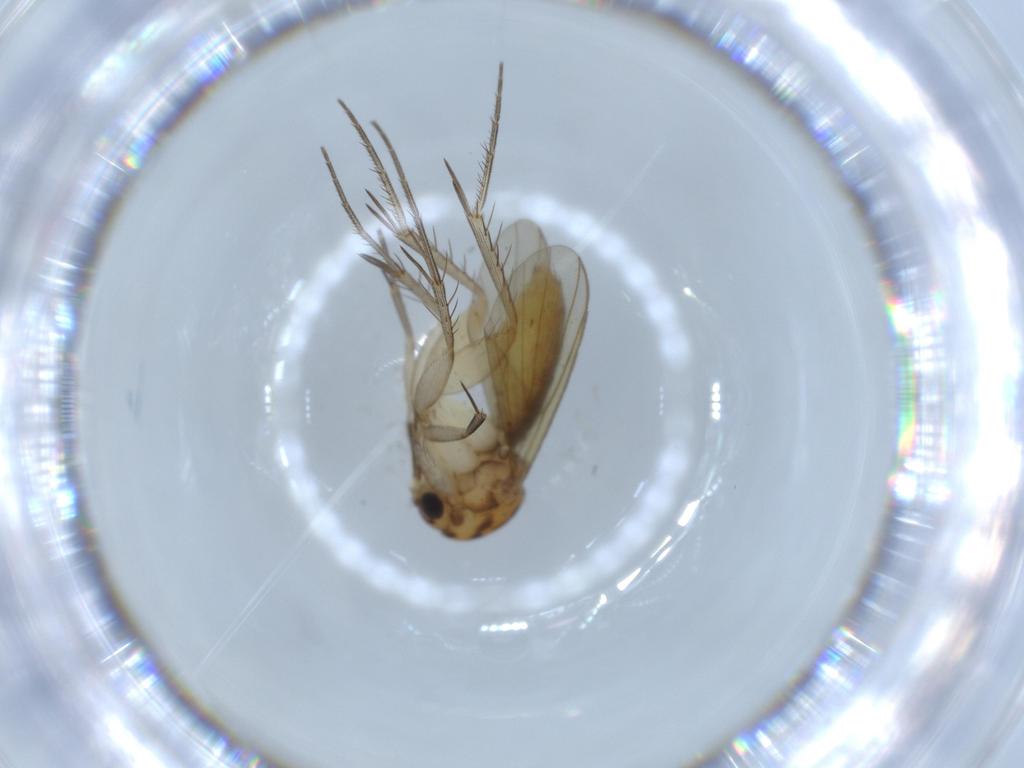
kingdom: Animalia
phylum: Arthropoda
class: Insecta
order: Diptera
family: Mycetophilidae
